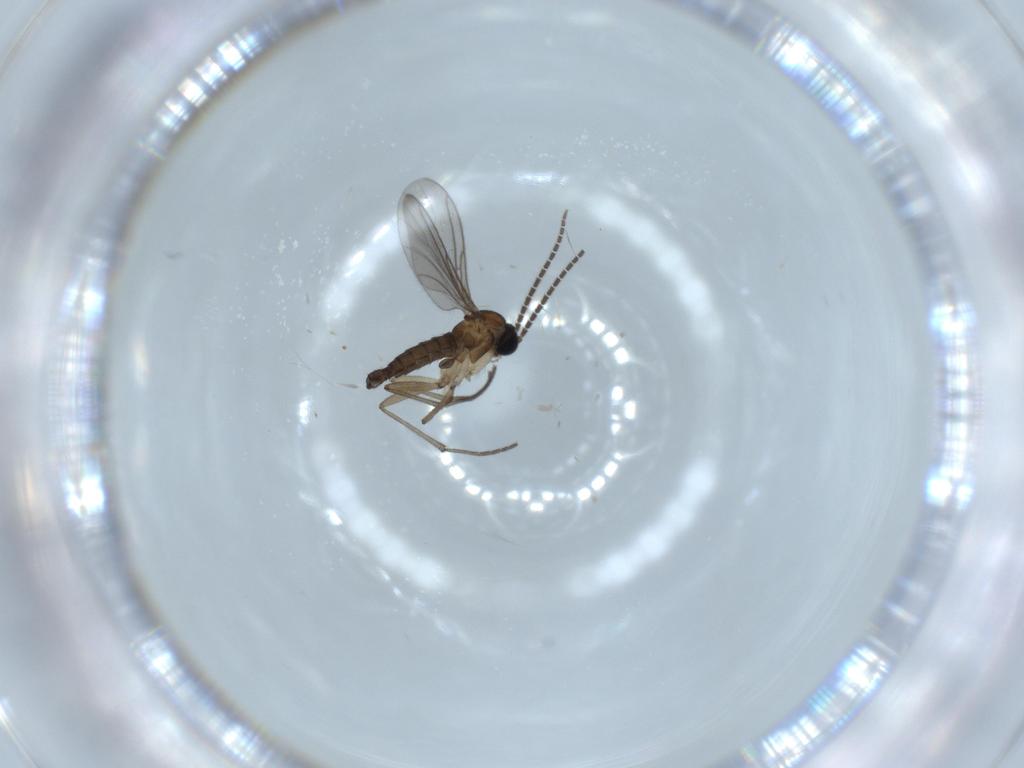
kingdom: Animalia
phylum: Arthropoda
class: Insecta
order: Diptera
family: Sciaridae
